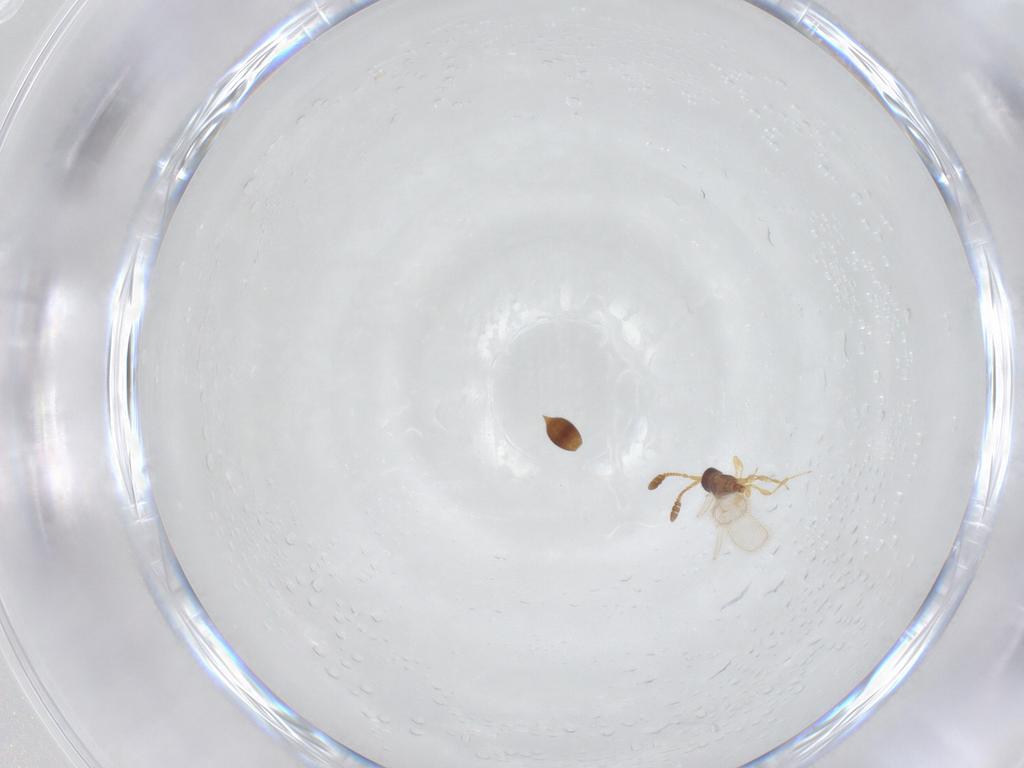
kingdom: Animalia
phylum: Arthropoda
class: Insecta
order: Hymenoptera
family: Diapriidae
